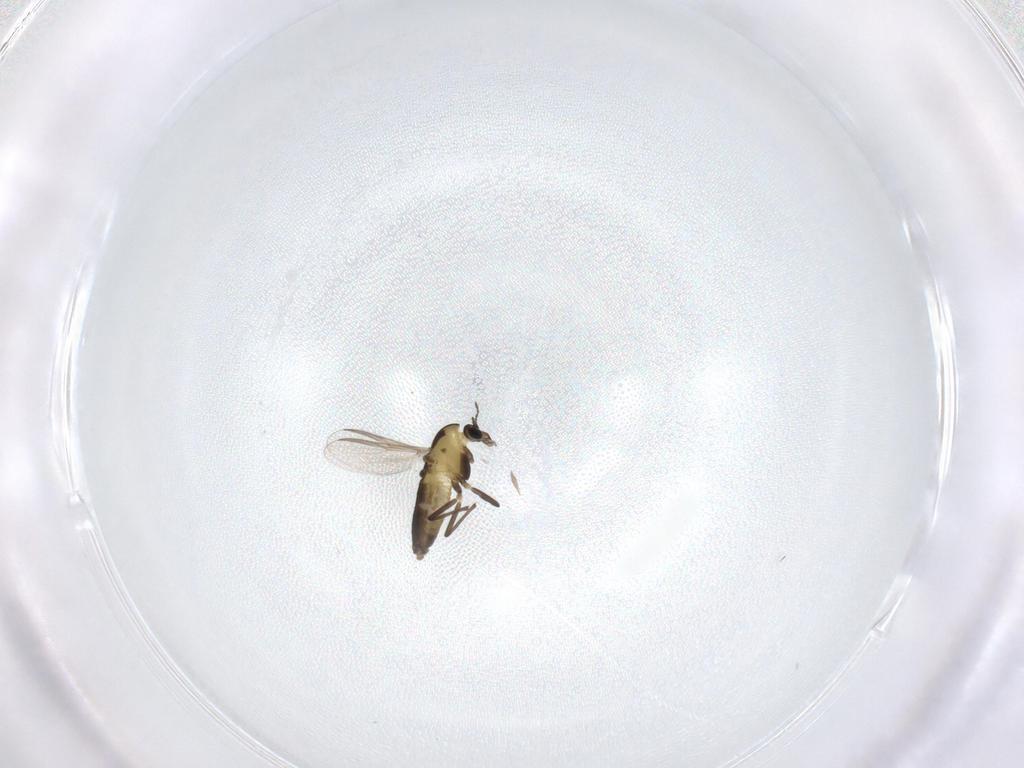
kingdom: Animalia
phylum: Arthropoda
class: Insecta
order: Diptera
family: Chironomidae
